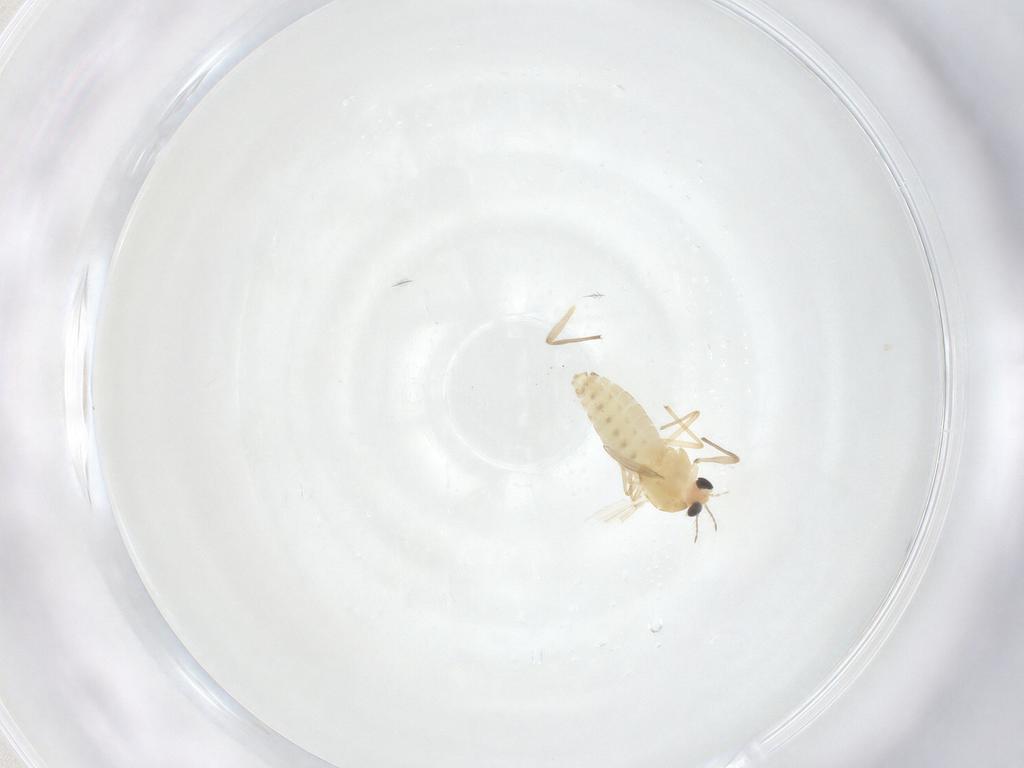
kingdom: Animalia
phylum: Arthropoda
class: Insecta
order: Diptera
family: Chironomidae
